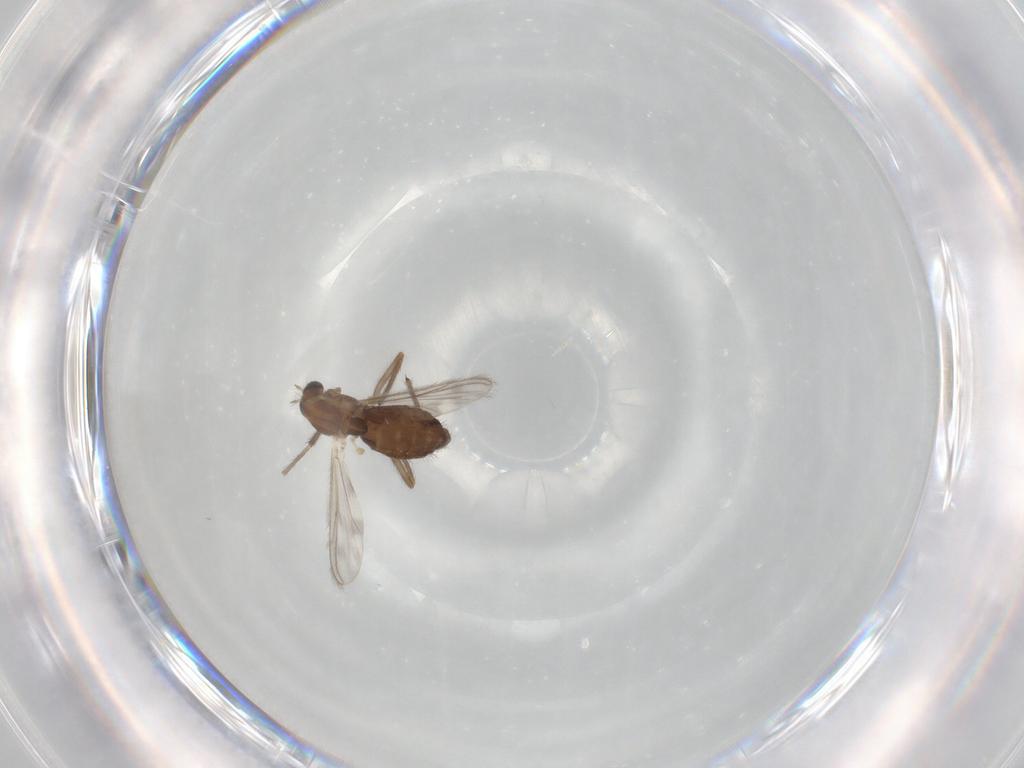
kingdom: Animalia
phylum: Arthropoda
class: Insecta
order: Diptera
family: Chironomidae
